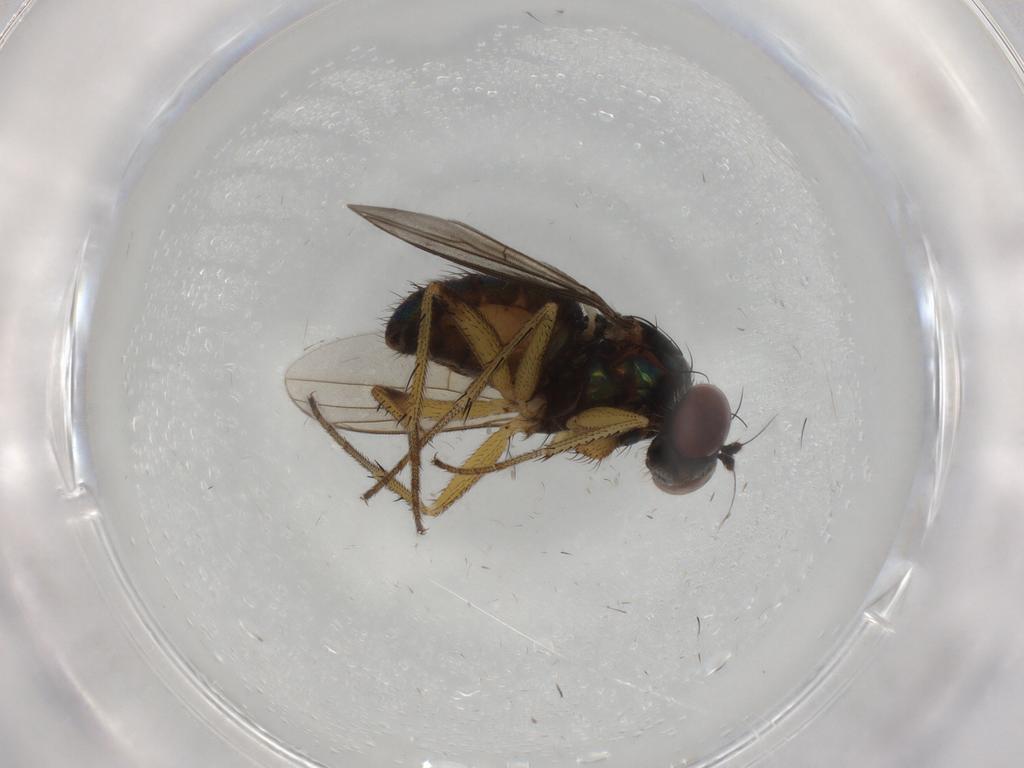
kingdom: Animalia
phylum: Arthropoda
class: Insecta
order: Diptera
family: Dolichopodidae
